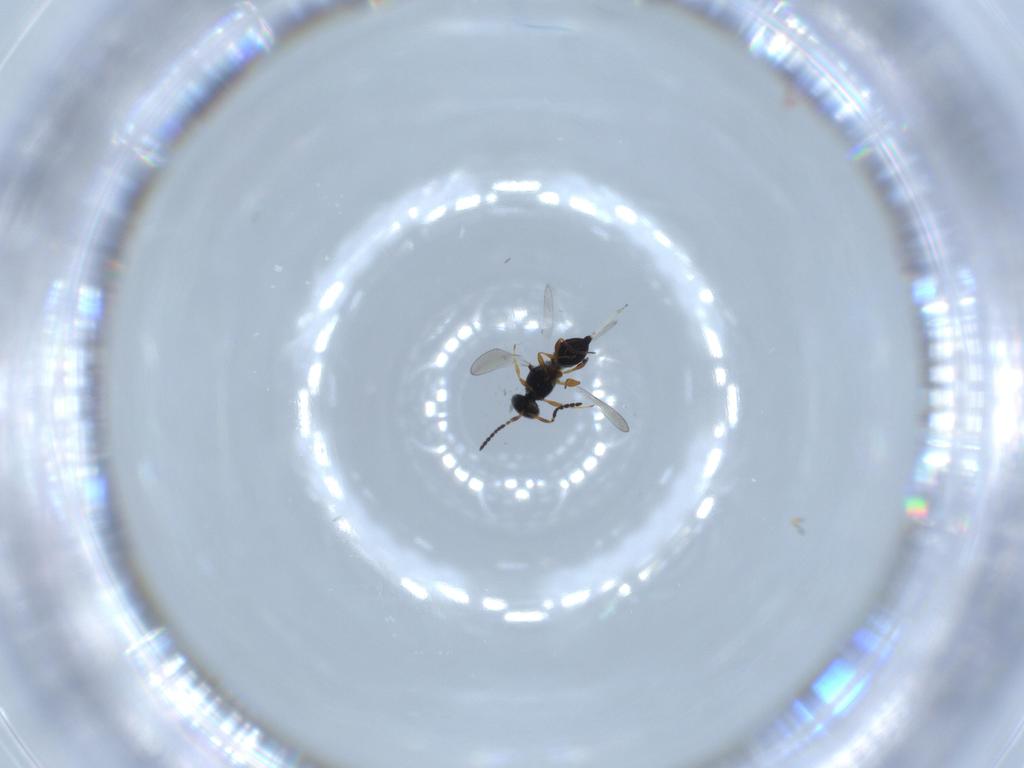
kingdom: Animalia
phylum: Arthropoda
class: Insecta
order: Hymenoptera
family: Platygastridae
